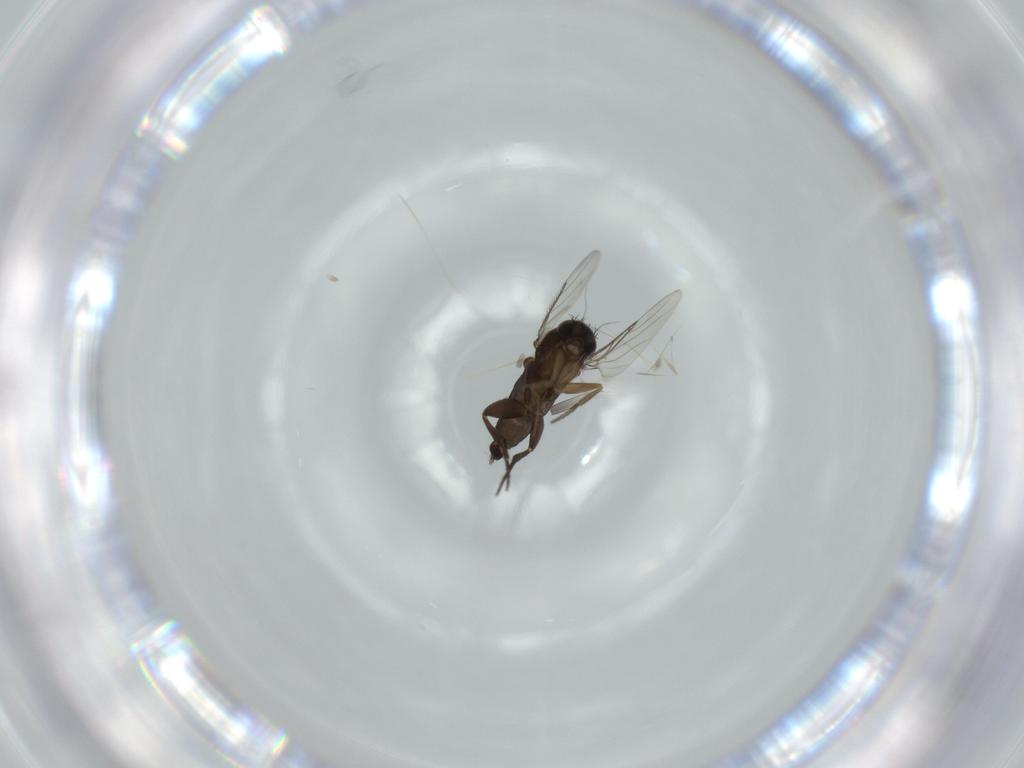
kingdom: Animalia
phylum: Arthropoda
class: Insecta
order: Diptera
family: Phoridae
